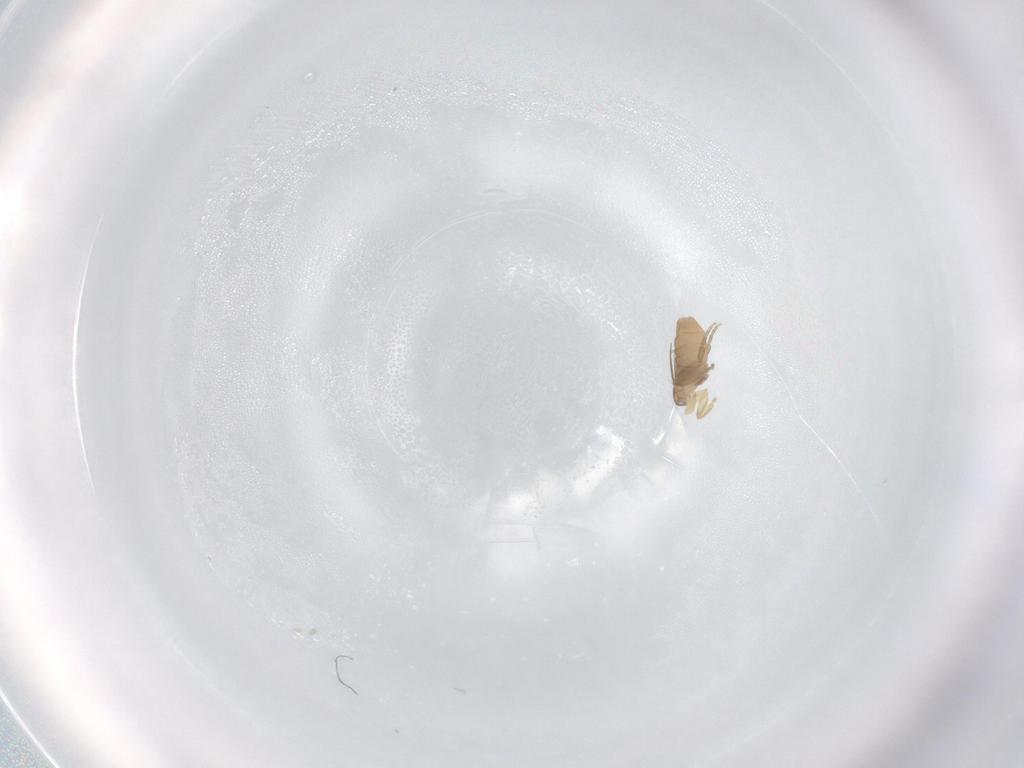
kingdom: Animalia
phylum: Arthropoda
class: Insecta
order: Diptera
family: Phoridae
